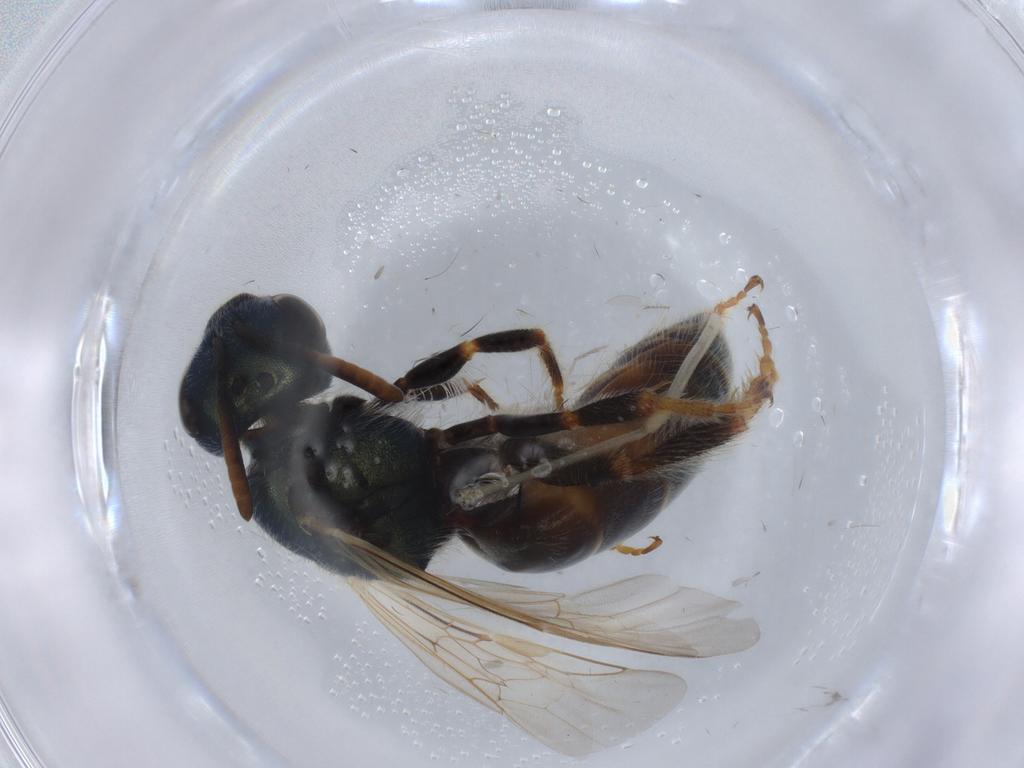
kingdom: Animalia
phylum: Arthropoda
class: Insecta
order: Hymenoptera
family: Halictidae
